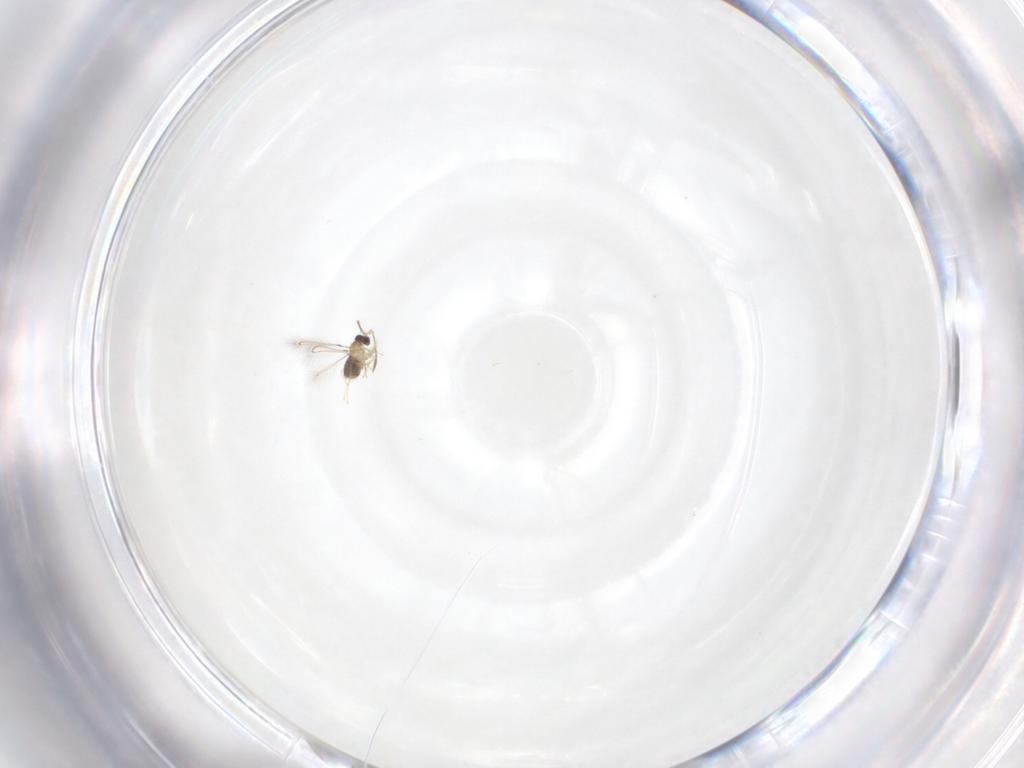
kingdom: Animalia
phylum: Arthropoda
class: Insecta
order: Hymenoptera
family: Mymaridae
